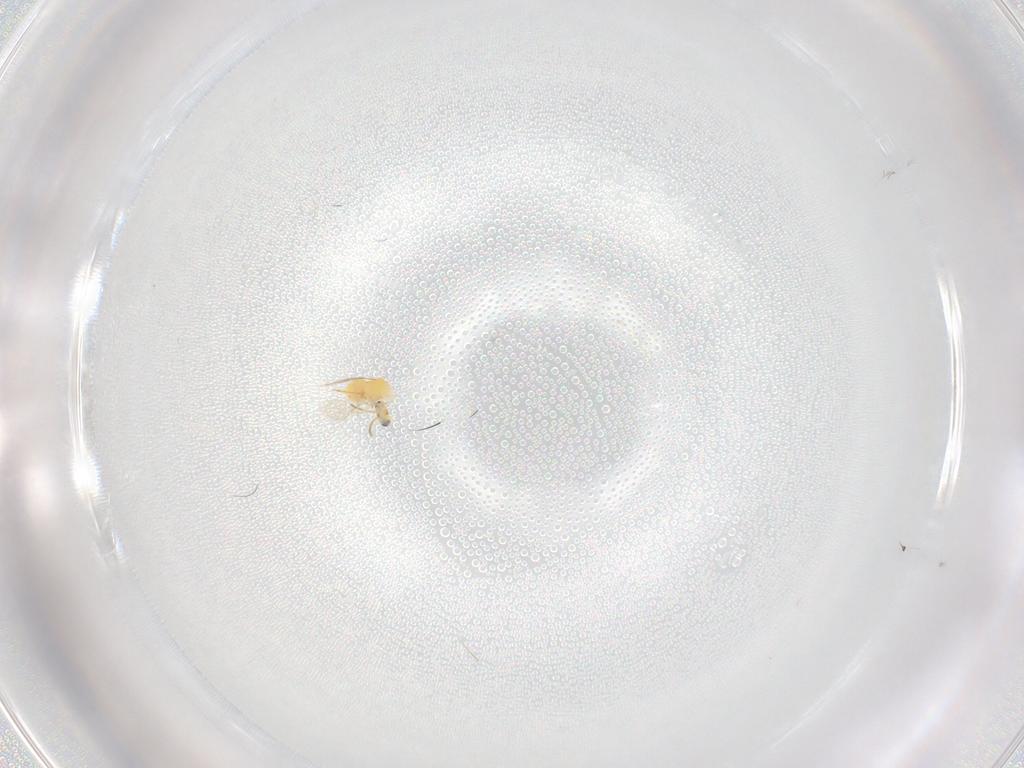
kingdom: Animalia
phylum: Arthropoda
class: Insecta
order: Hymenoptera
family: Aphelinidae
